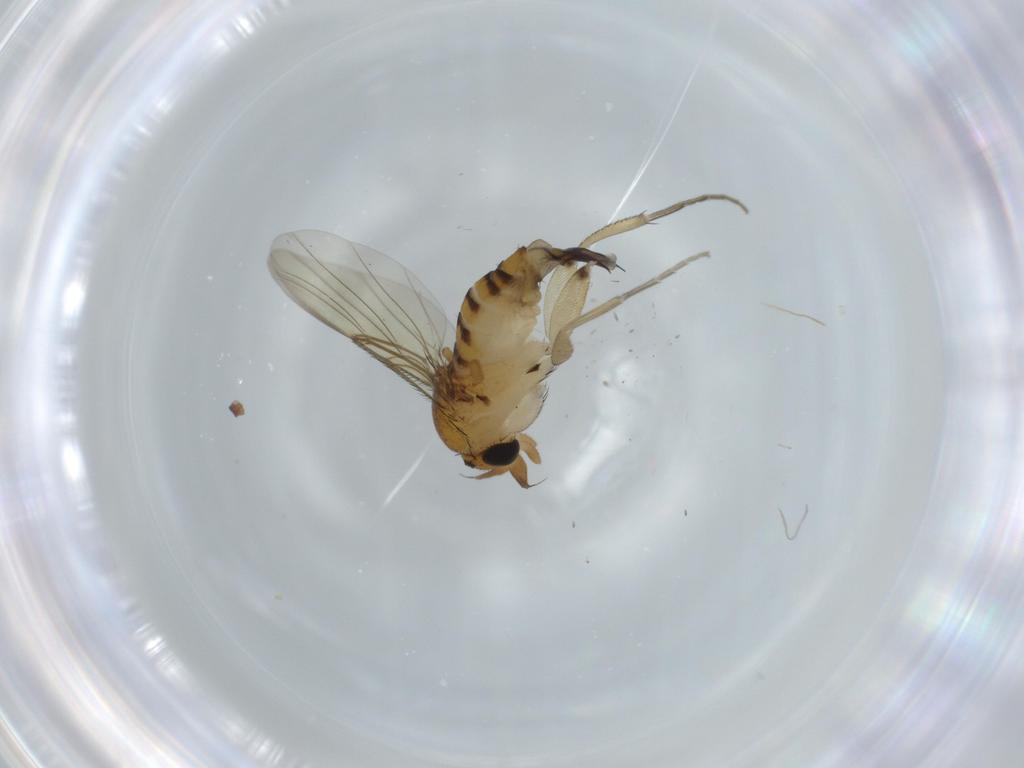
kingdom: Animalia
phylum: Arthropoda
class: Insecta
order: Diptera
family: Phoridae
